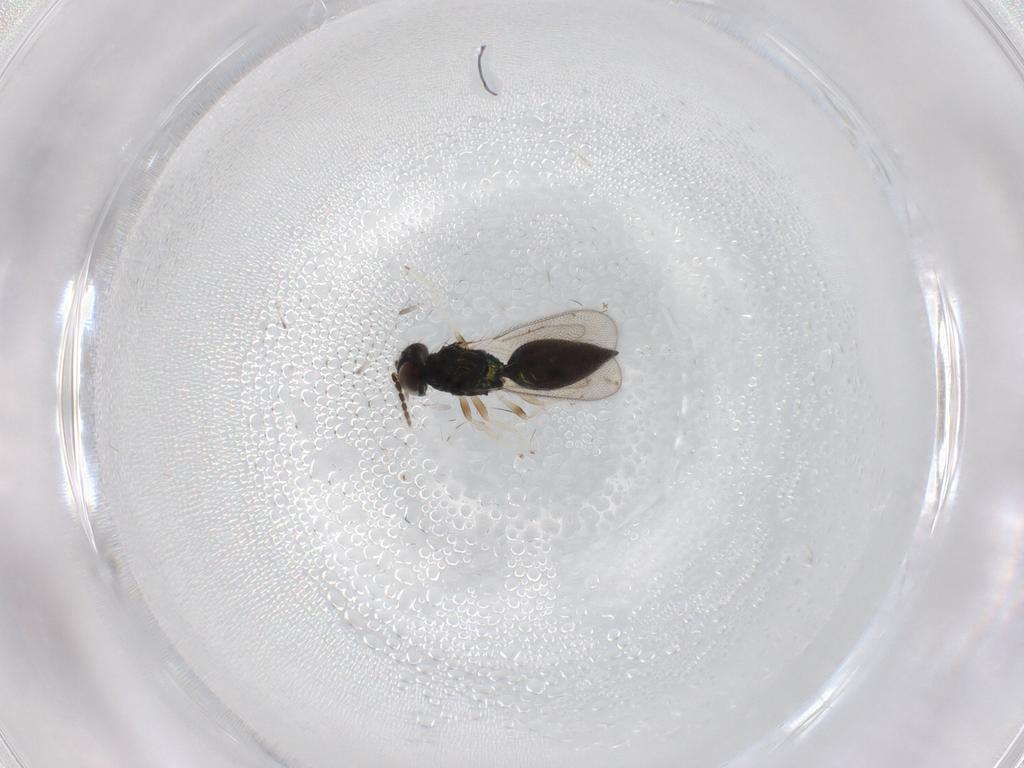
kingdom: Animalia
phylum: Arthropoda
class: Insecta
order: Hymenoptera
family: Eulophidae
